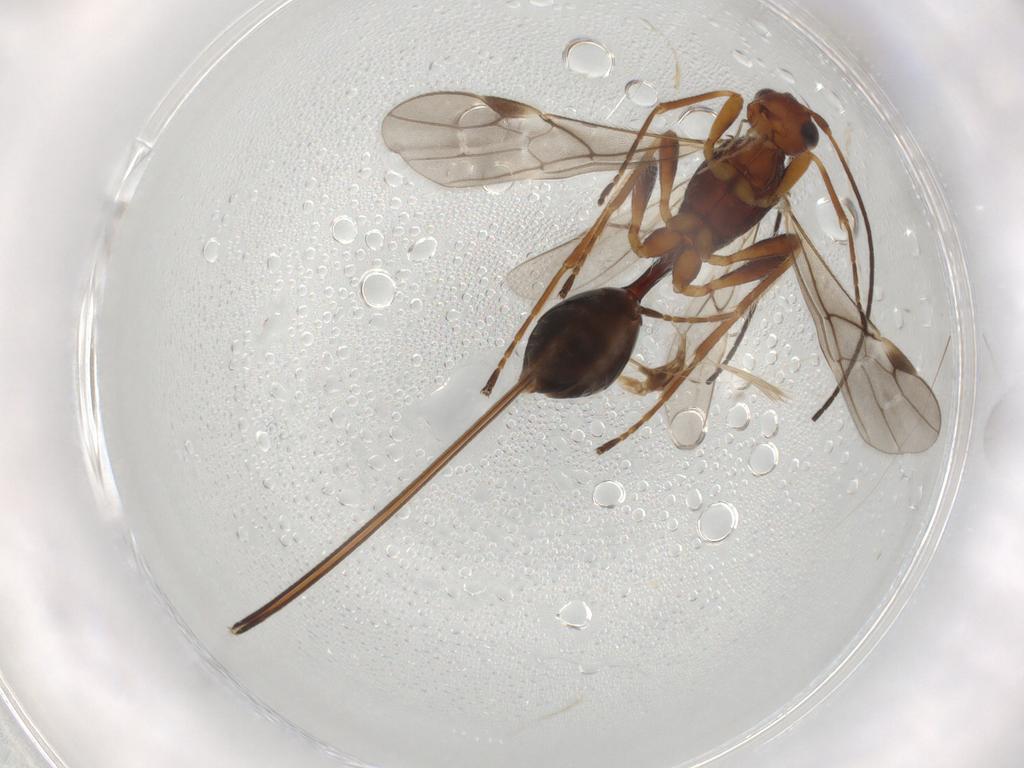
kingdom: Animalia
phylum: Arthropoda
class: Insecta
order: Hymenoptera
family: Braconidae
